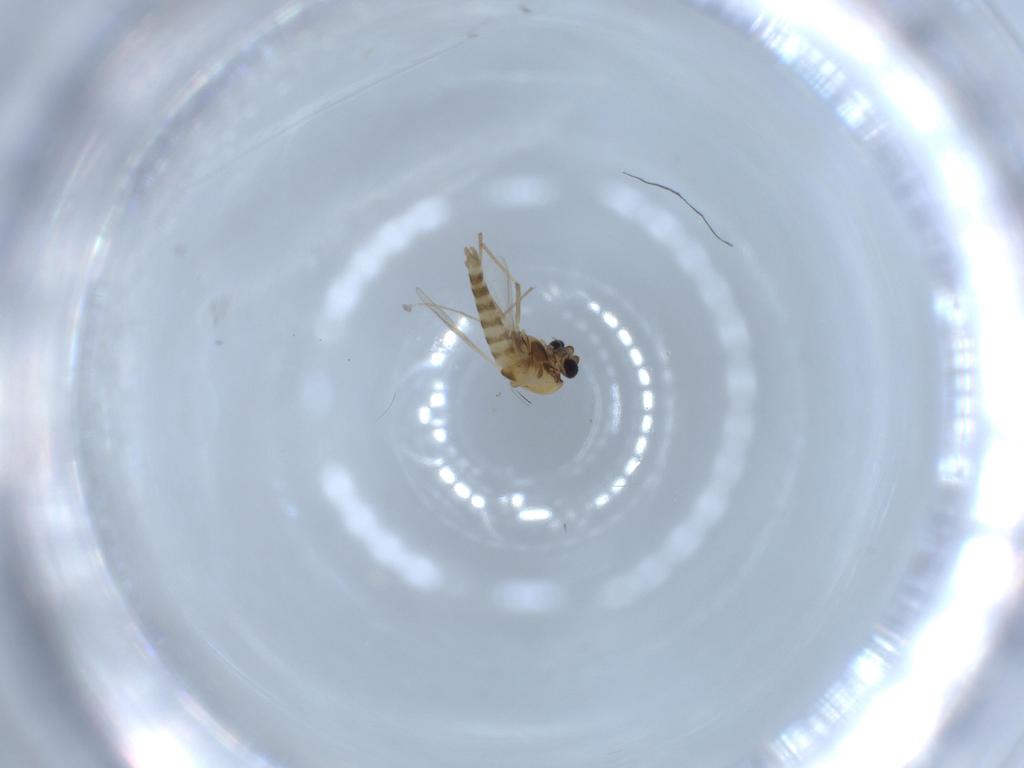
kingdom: Animalia
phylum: Arthropoda
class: Insecta
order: Diptera
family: Chironomidae
